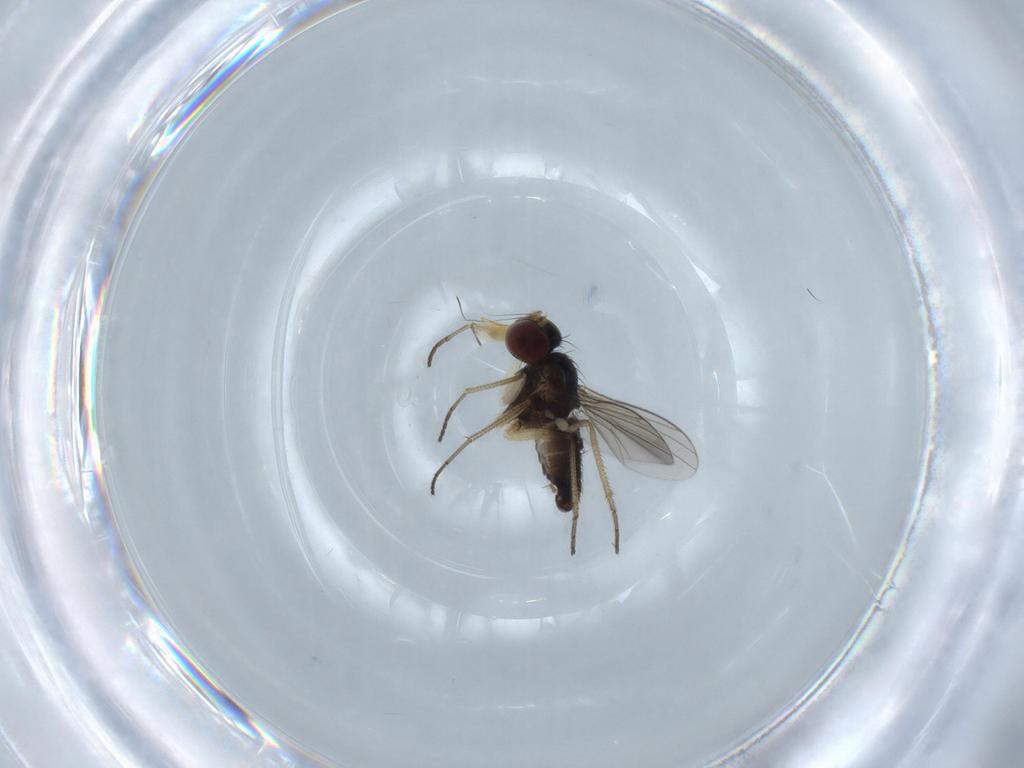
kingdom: Animalia
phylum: Arthropoda
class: Insecta
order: Diptera
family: Dolichopodidae
